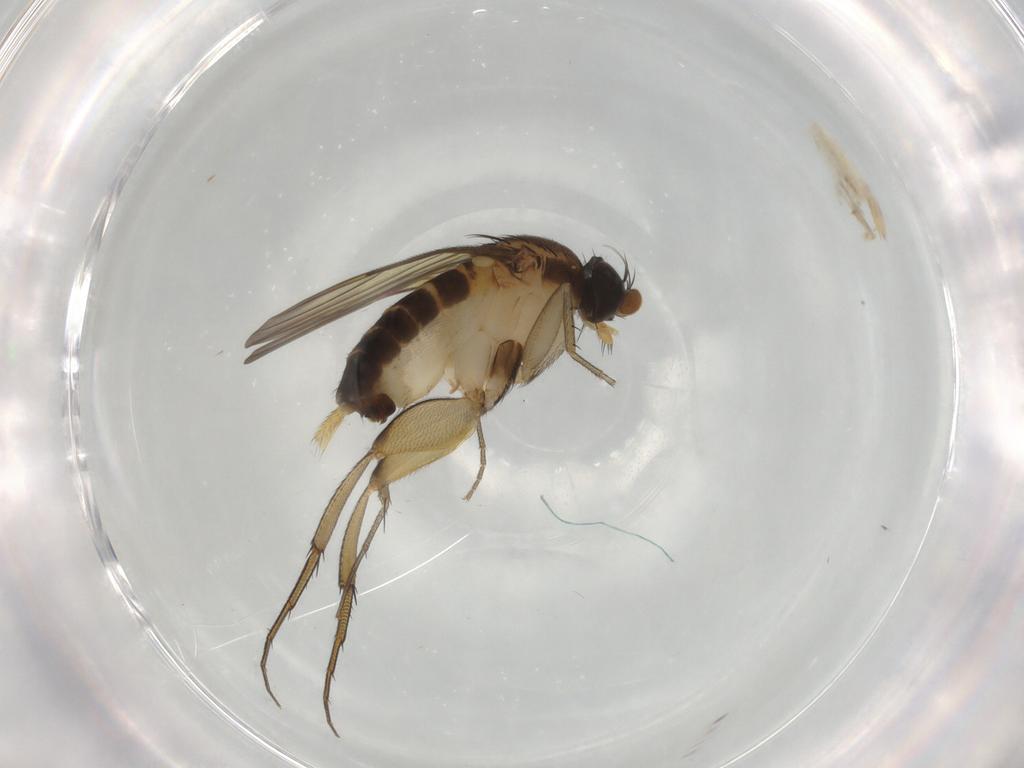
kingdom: Animalia
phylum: Arthropoda
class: Insecta
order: Diptera
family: Phoridae
